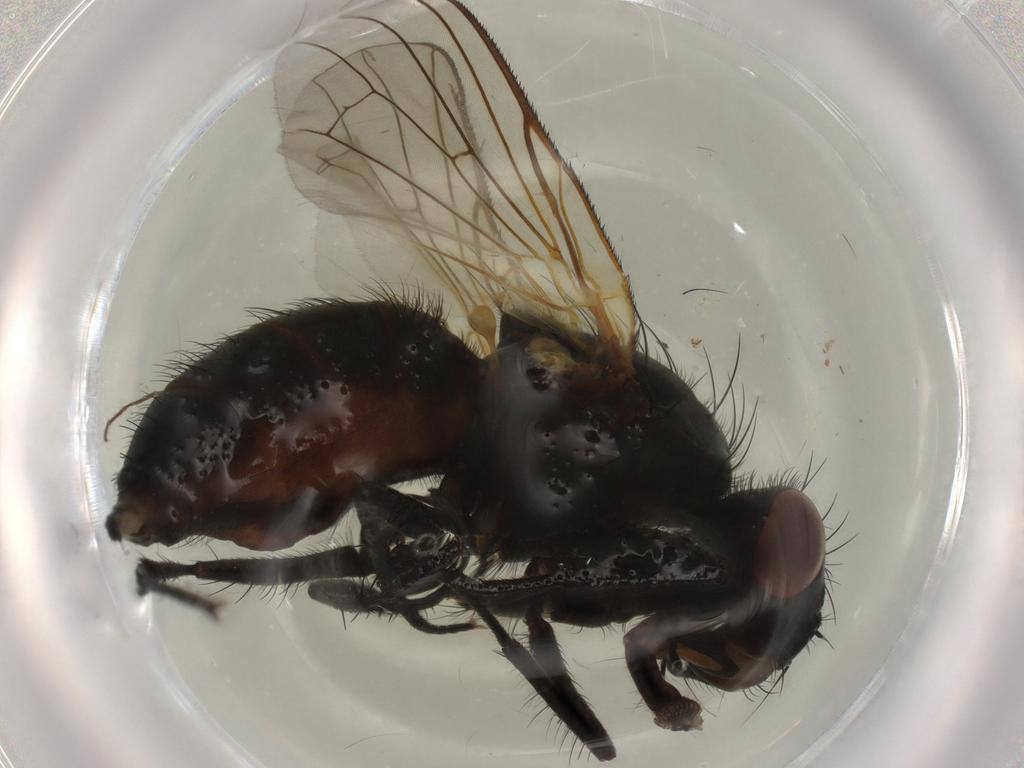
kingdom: Animalia
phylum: Arthropoda
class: Insecta
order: Diptera
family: Anthomyiidae
